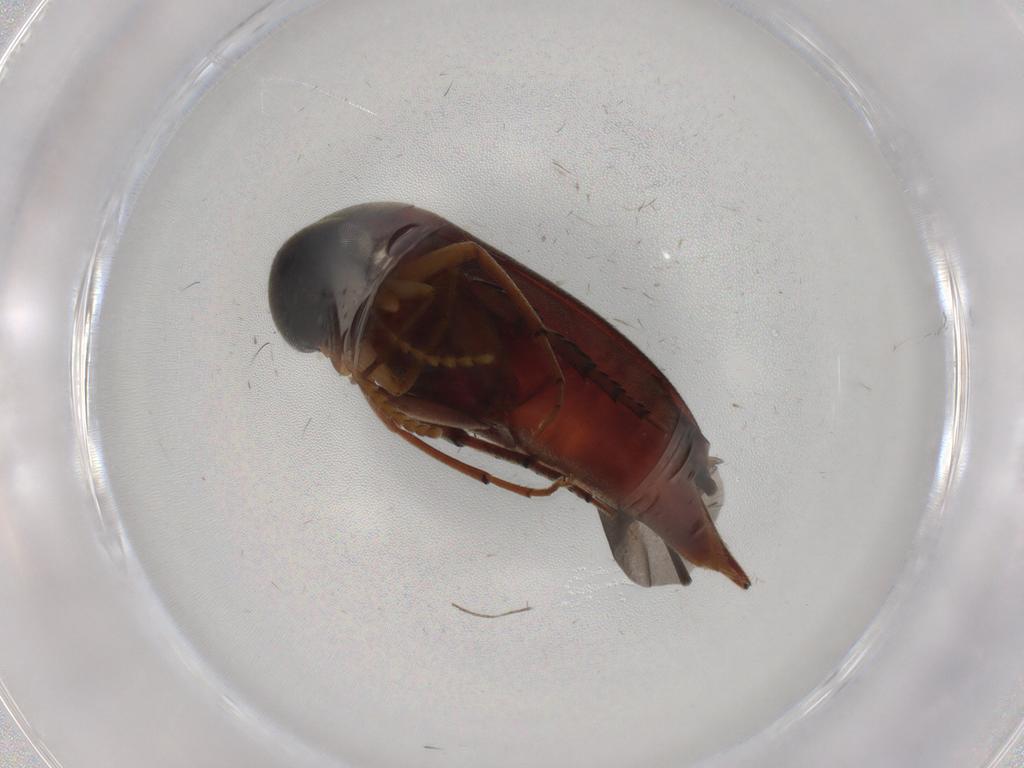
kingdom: Animalia
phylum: Arthropoda
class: Insecta
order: Coleoptera
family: Mordellidae
